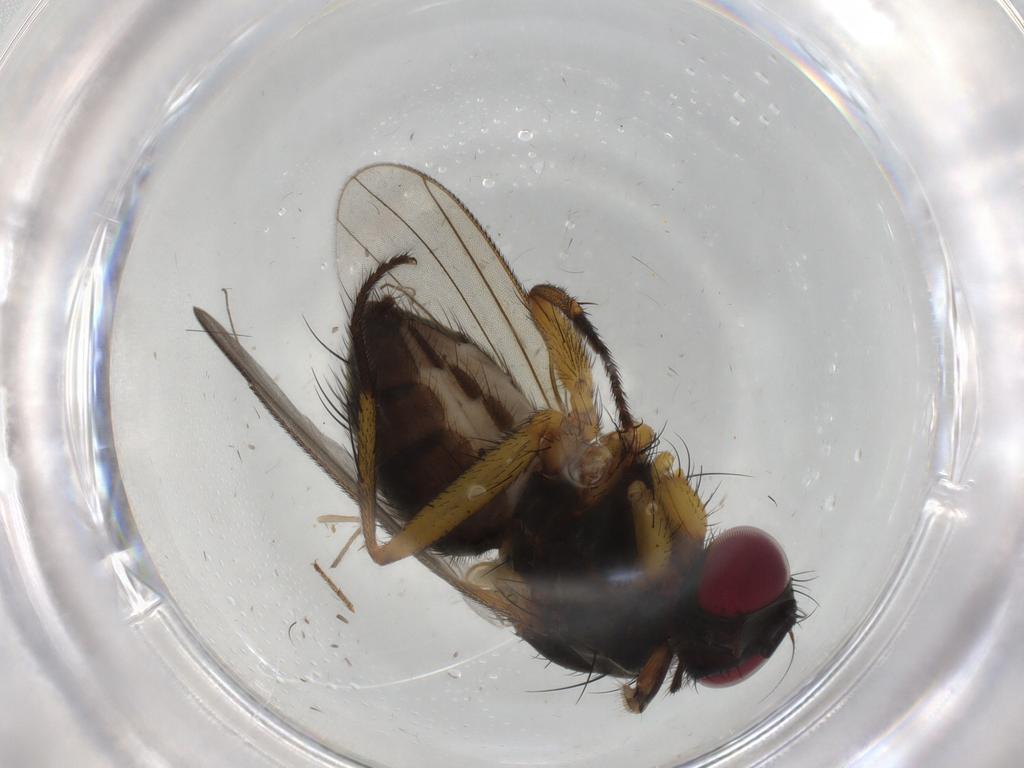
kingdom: Animalia
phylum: Arthropoda
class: Insecta
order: Diptera
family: Muscidae
